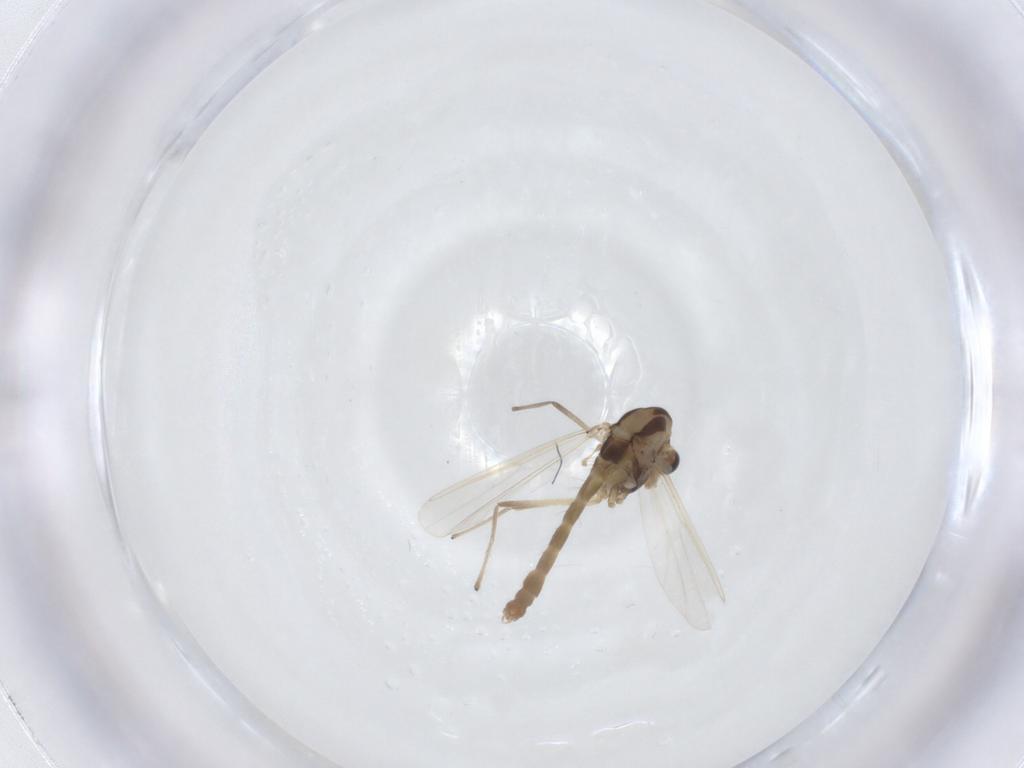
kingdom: Animalia
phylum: Arthropoda
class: Insecta
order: Diptera
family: Chironomidae
